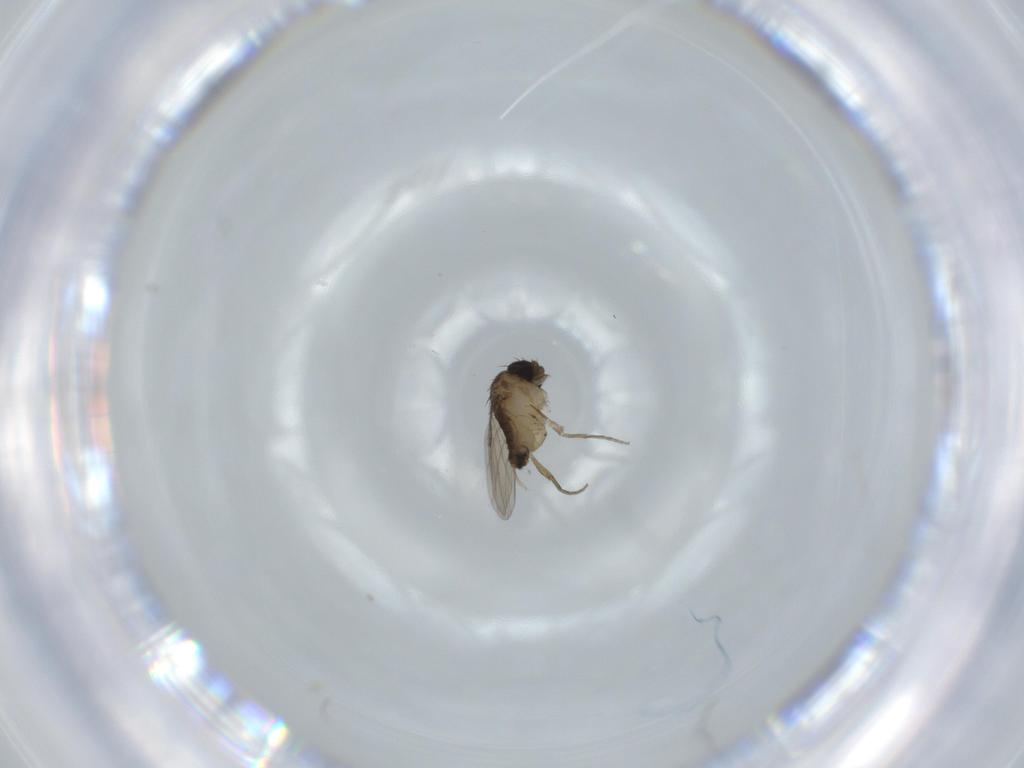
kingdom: Animalia
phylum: Arthropoda
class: Insecta
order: Diptera
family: Phoridae
